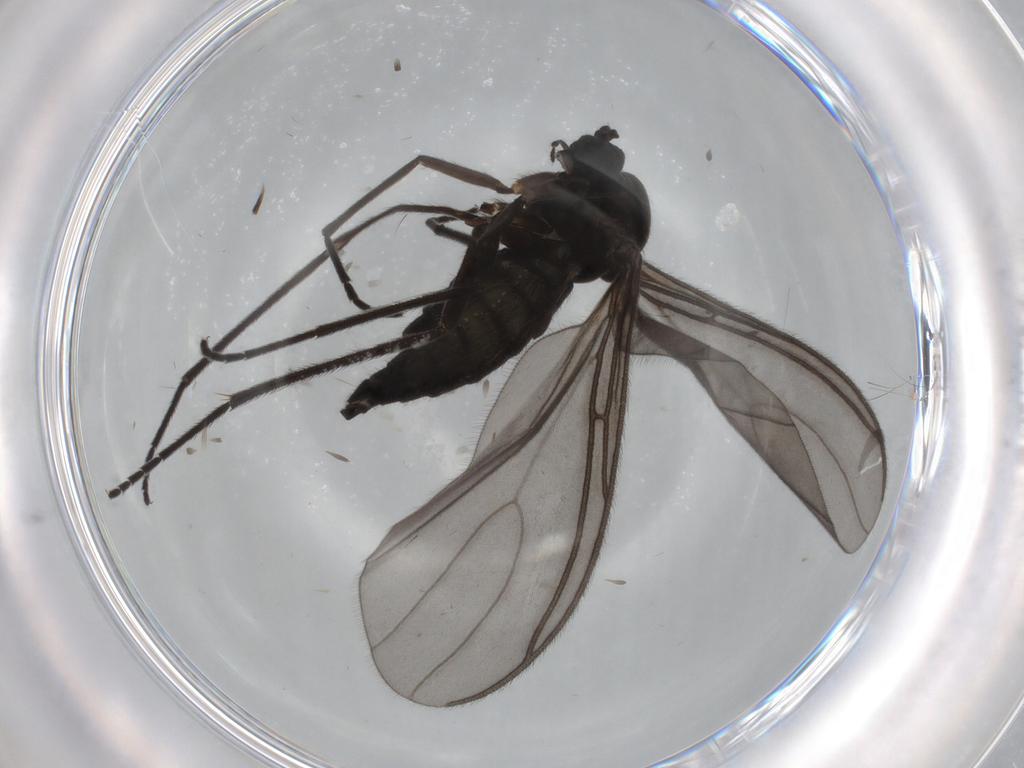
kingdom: Animalia
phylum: Arthropoda
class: Insecta
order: Diptera
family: Sciaridae
